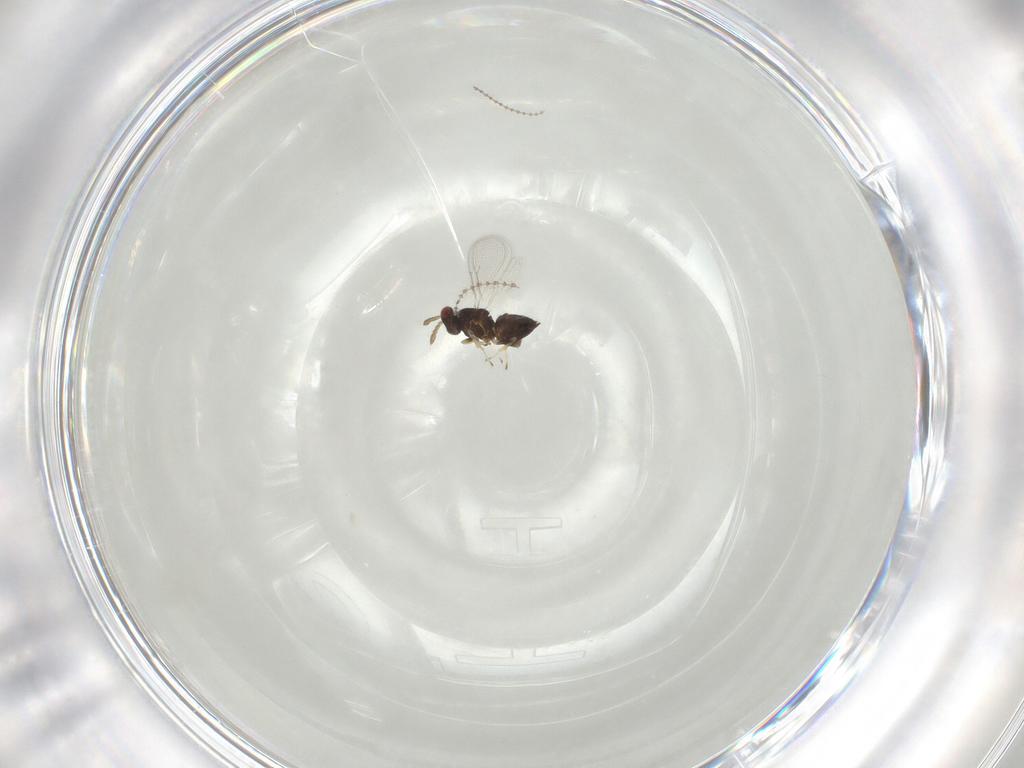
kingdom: Animalia
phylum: Arthropoda
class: Insecta
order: Hymenoptera
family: Eulophidae
